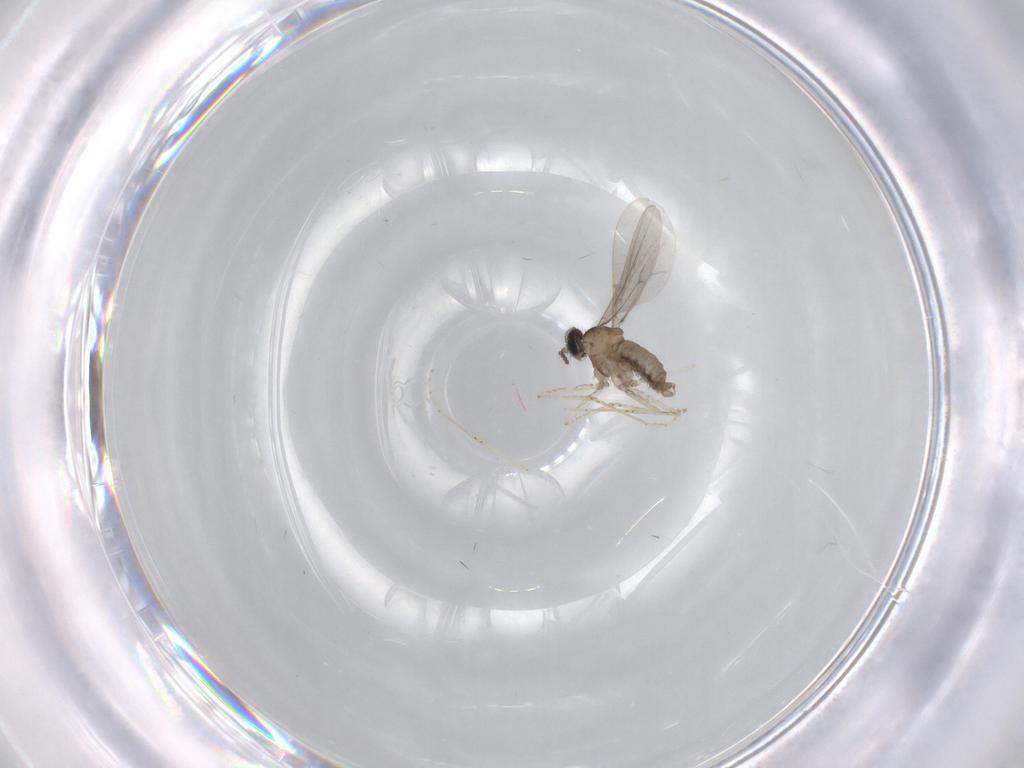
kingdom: Animalia
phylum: Arthropoda
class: Insecta
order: Diptera
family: Cecidomyiidae
